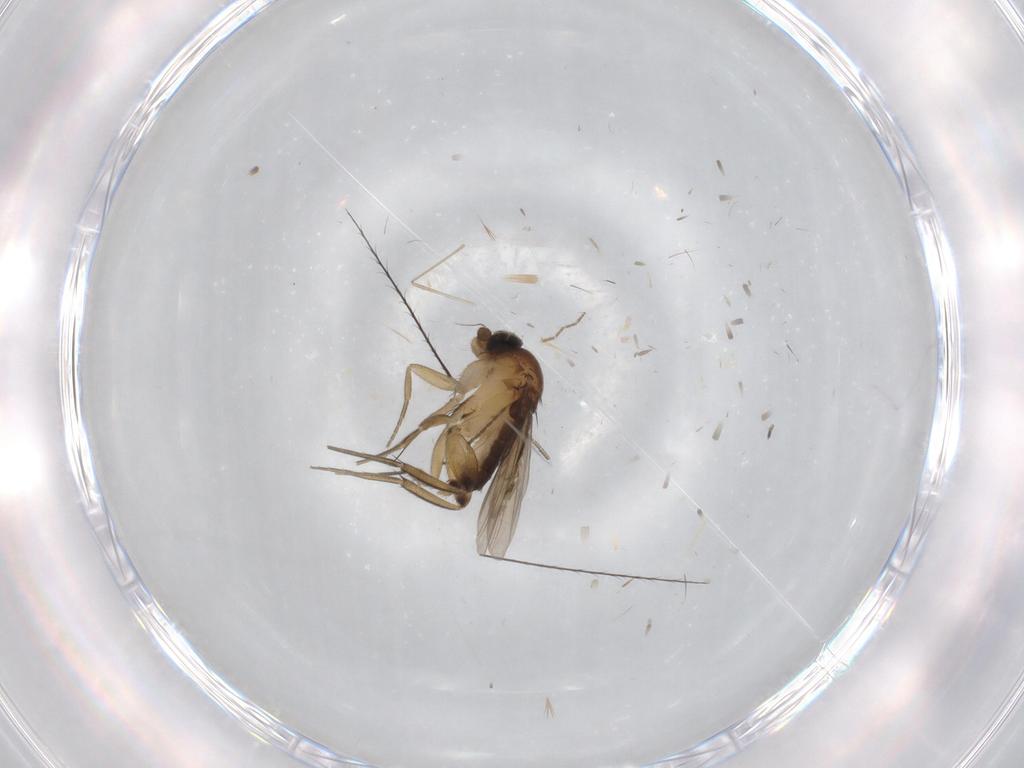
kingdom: Animalia
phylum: Arthropoda
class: Insecta
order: Diptera
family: Phoridae
